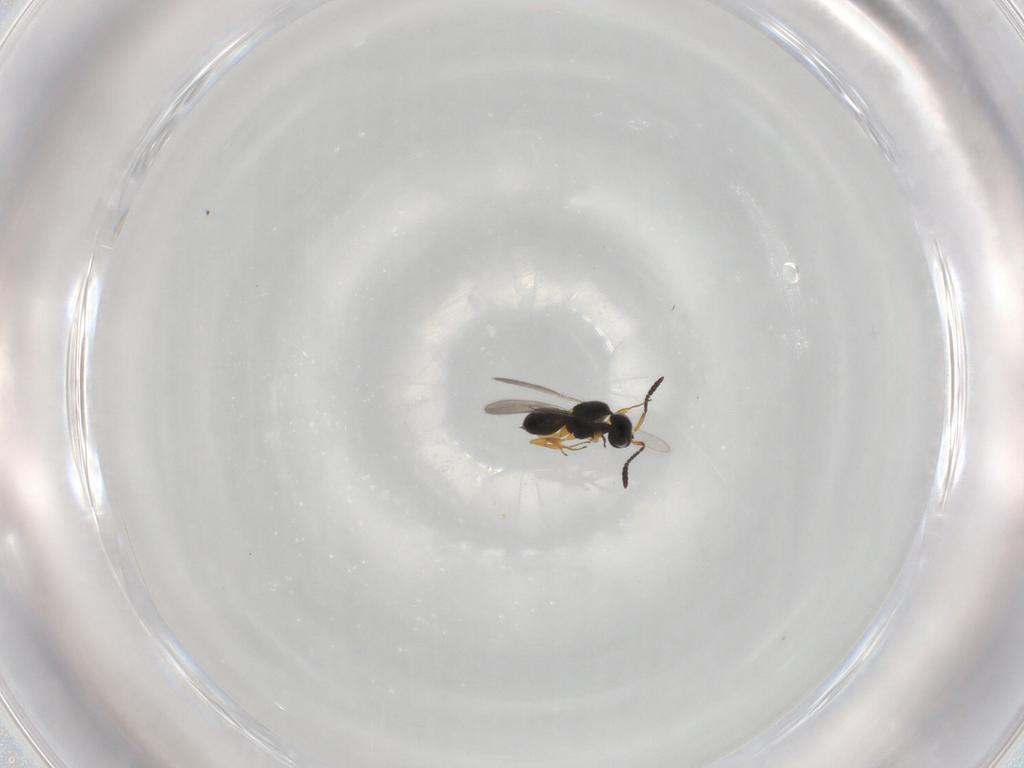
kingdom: Animalia
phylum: Arthropoda
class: Insecta
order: Hymenoptera
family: Scelionidae
